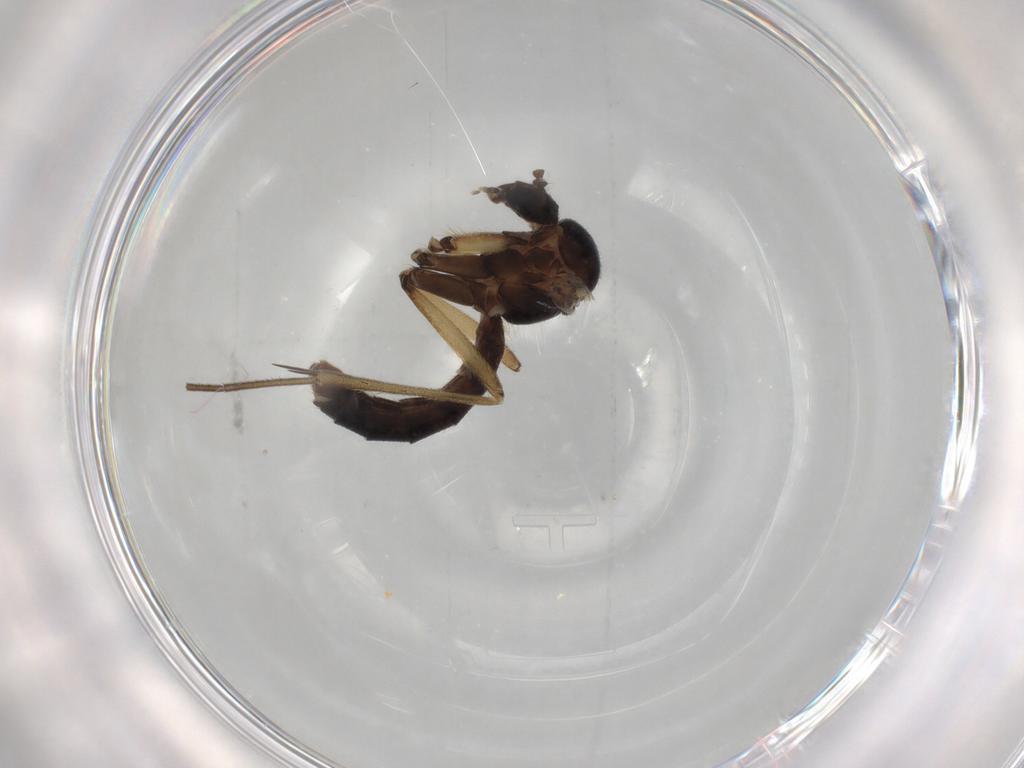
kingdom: Animalia
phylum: Arthropoda
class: Insecta
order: Diptera
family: Mycetophilidae
